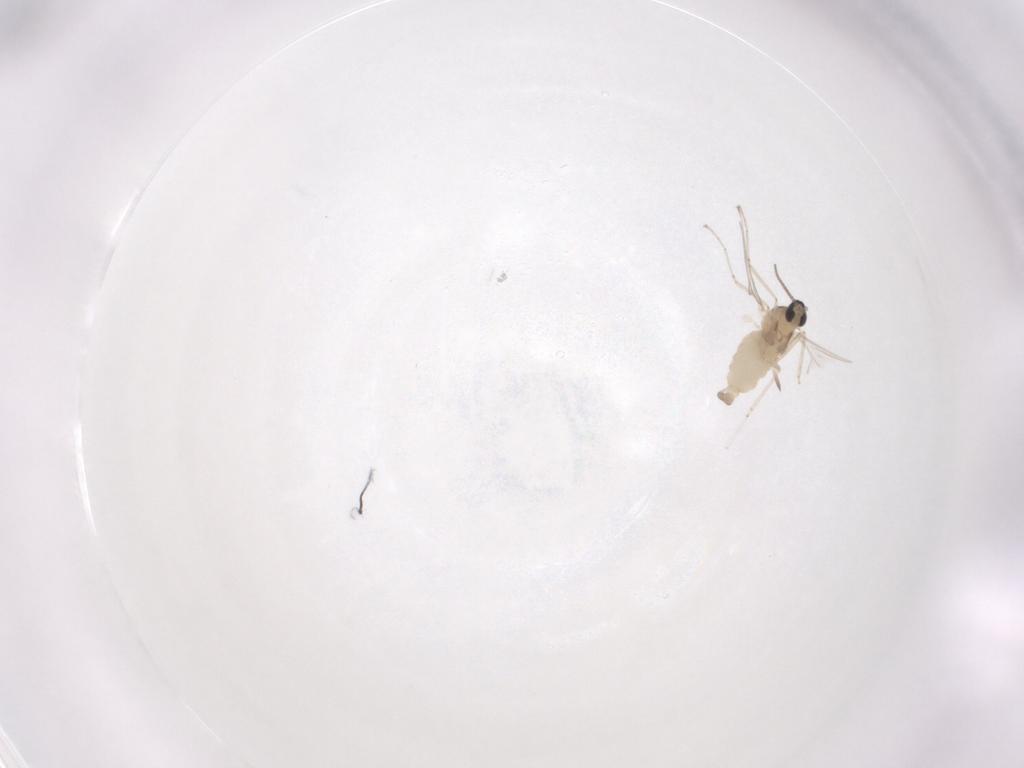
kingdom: Animalia
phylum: Arthropoda
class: Insecta
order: Diptera
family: Cecidomyiidae
